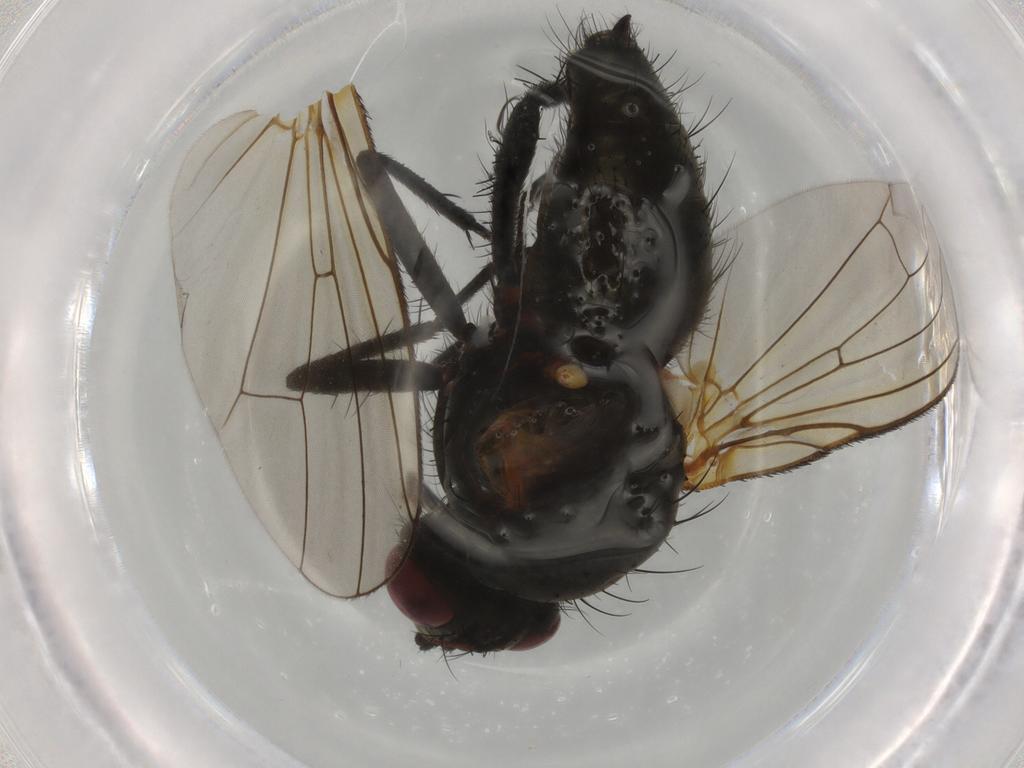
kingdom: Animalia
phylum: Arthropoda
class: Insecta
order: Diptera
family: Anthomyiidae
